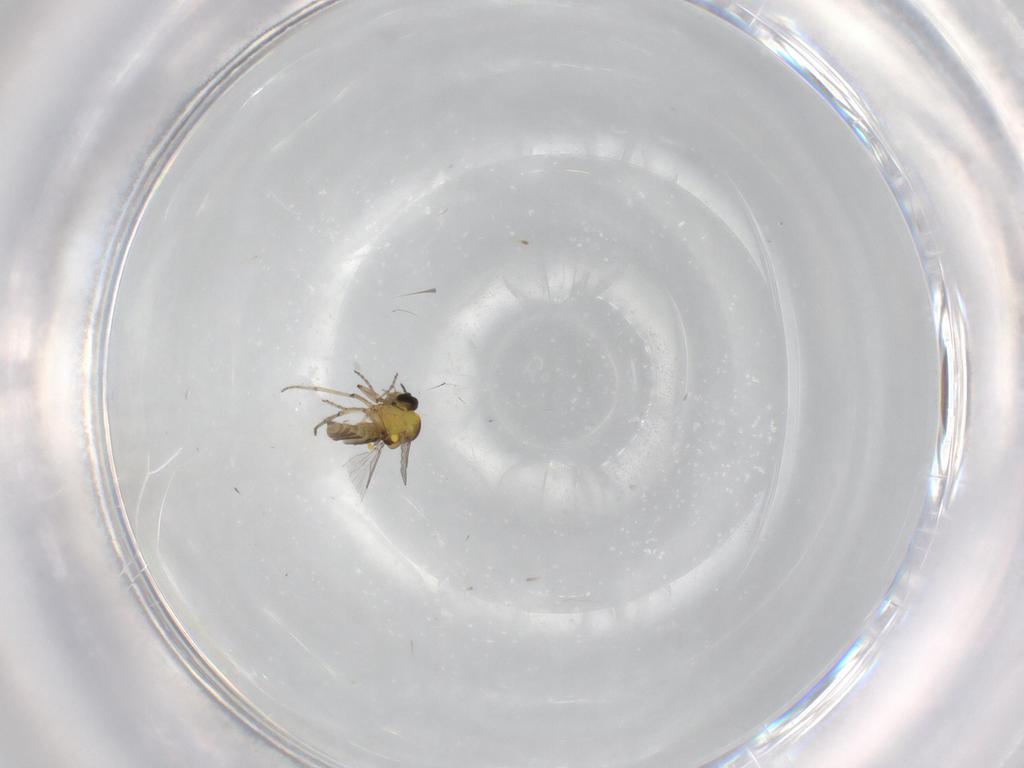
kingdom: Animalia
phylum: Arthropoda
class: Insecta
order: Diptera
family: Ceratopogonidae
